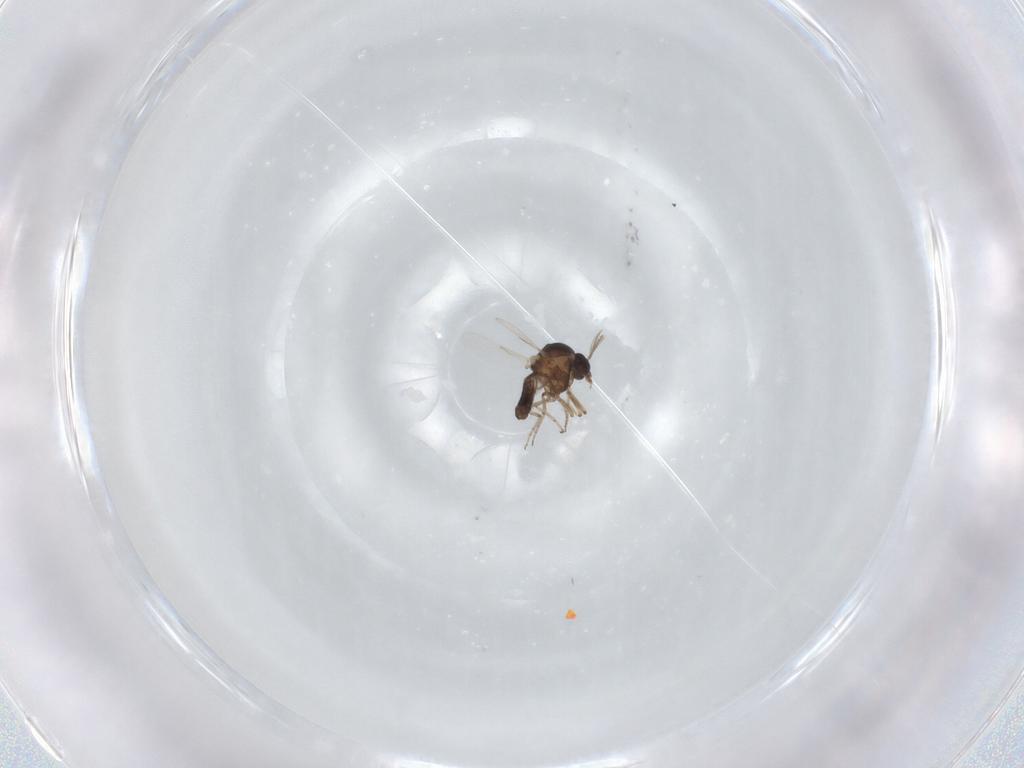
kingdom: Animalia
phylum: Arthropoda
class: Insecta
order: Diptera
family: Ceratopogonidae
